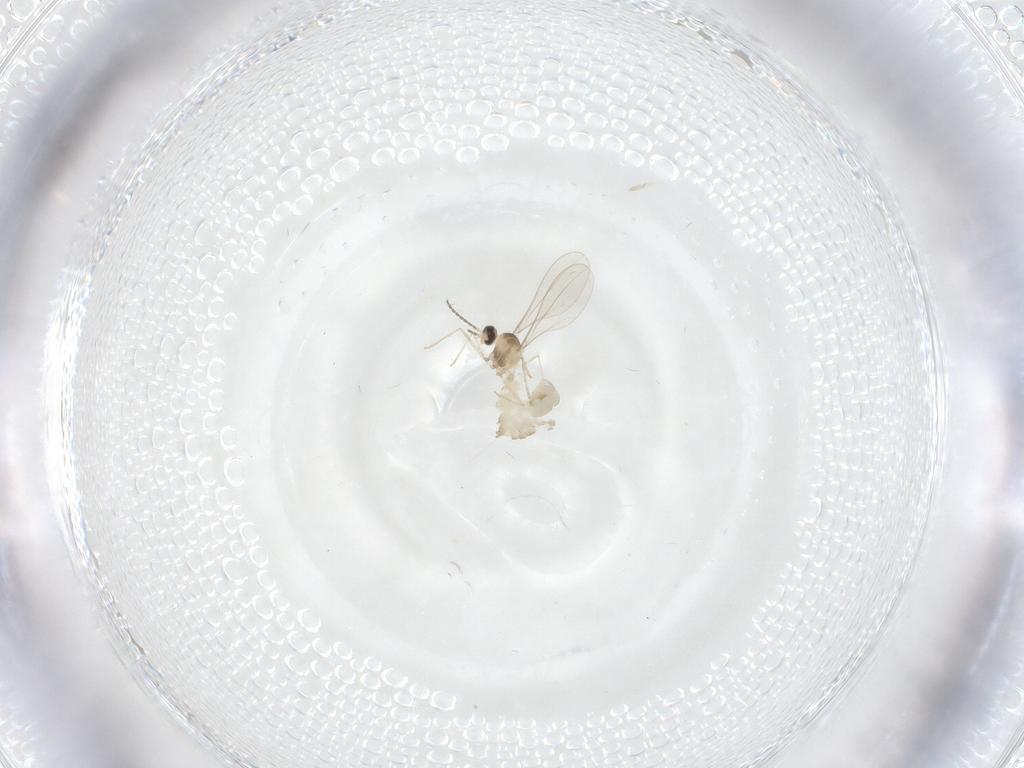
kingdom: Animalia
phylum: Arthropoda
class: Insecta
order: Diptera
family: Cecidomyiidae
